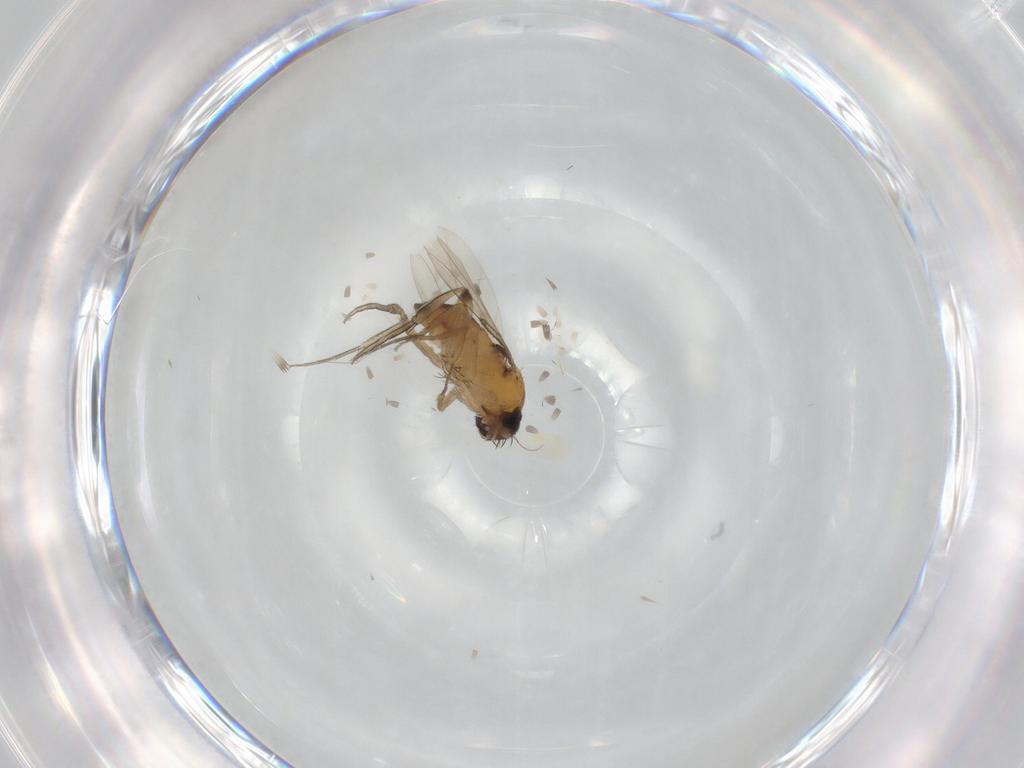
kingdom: Animalia
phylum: Arthropoda
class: Insecta
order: Diptera
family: Phoridae
